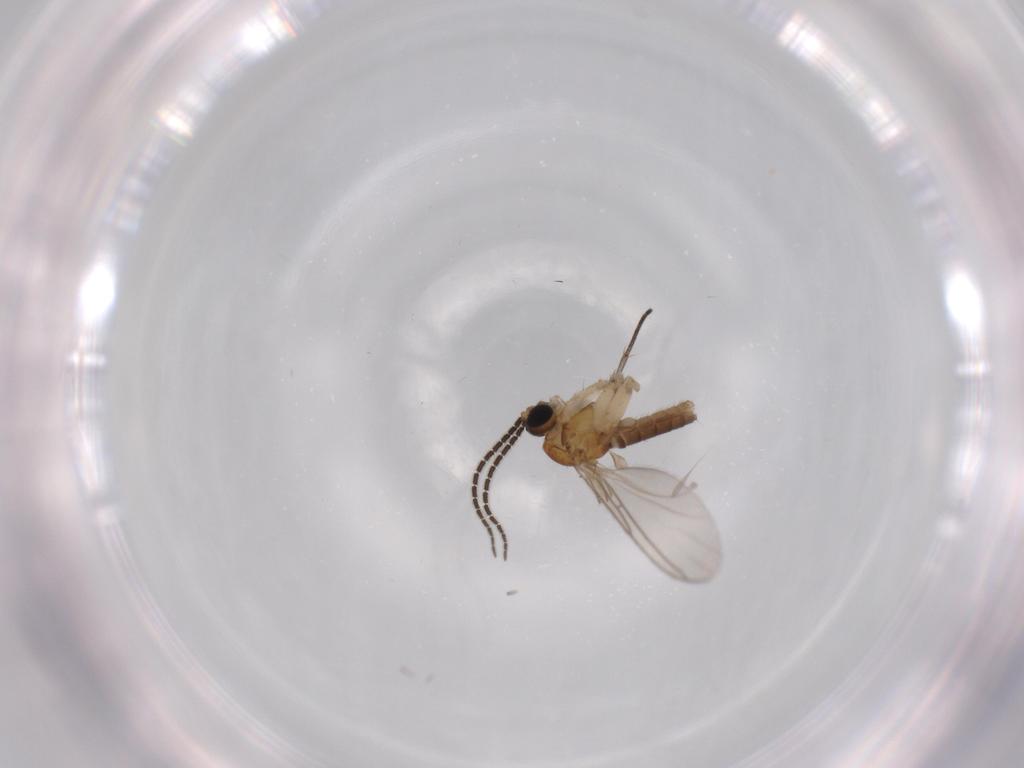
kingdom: Animalia
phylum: Arthropoda
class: Insecta
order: Diptera
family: Sciaridae
